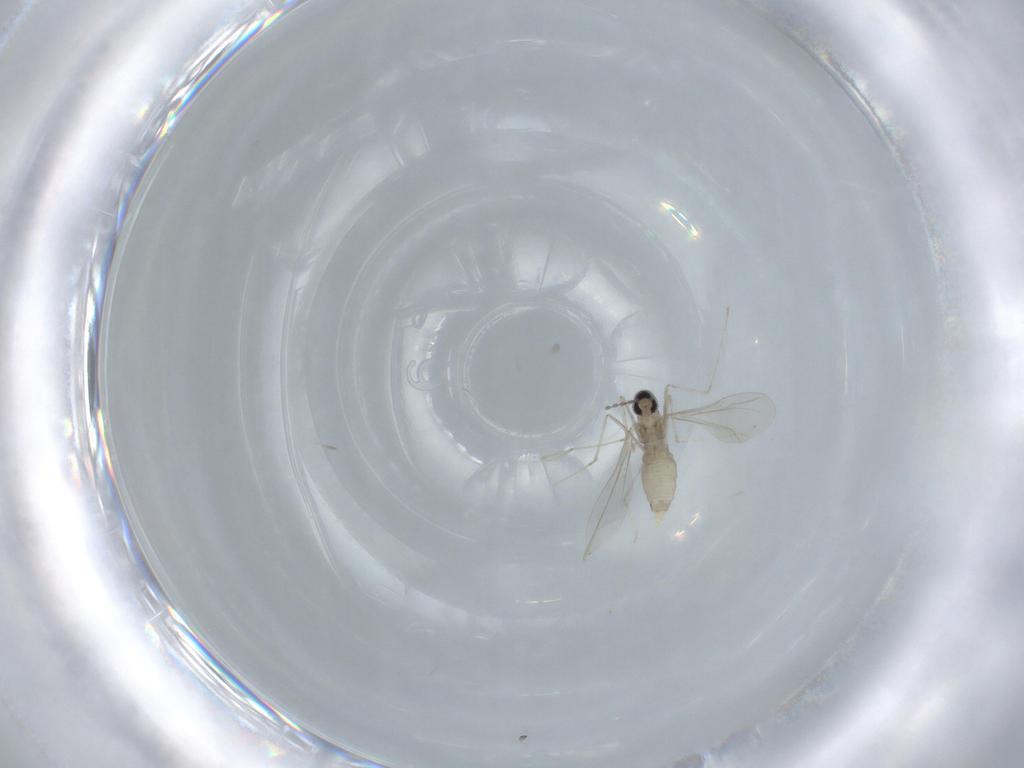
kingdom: Animalia
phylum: Arthropoda
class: Insecta
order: Diptera
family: Cecidomyiidae
